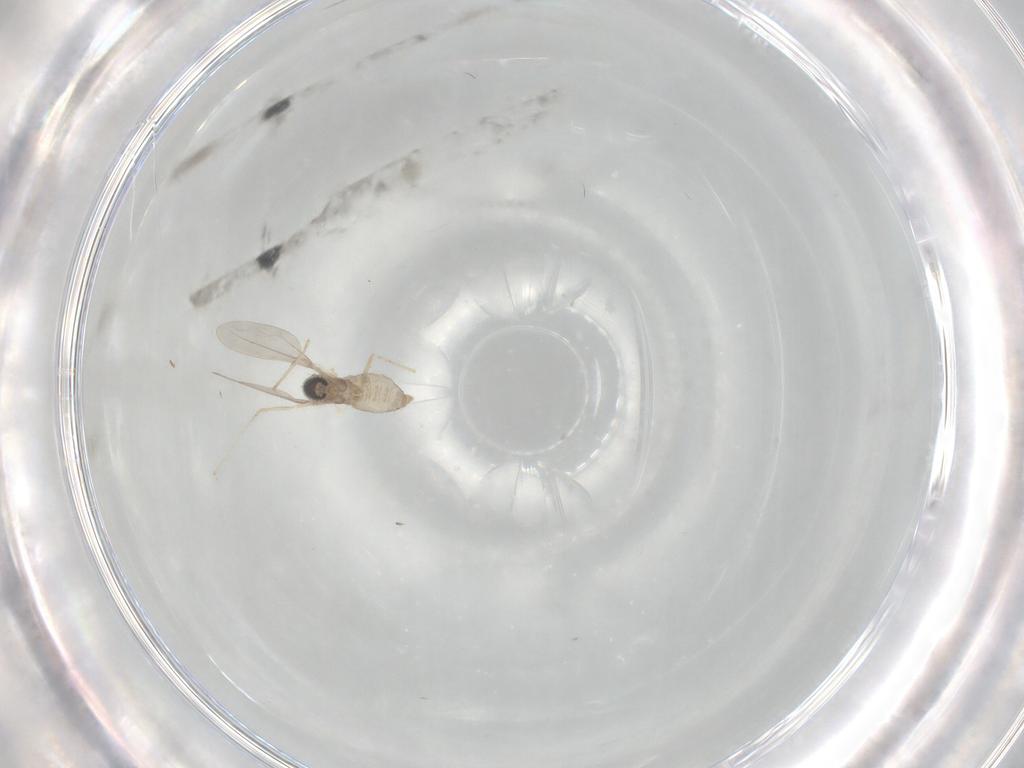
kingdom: Animalia
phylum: Arthropoda
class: Insecta
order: Diptera
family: Cecidomyiidae
